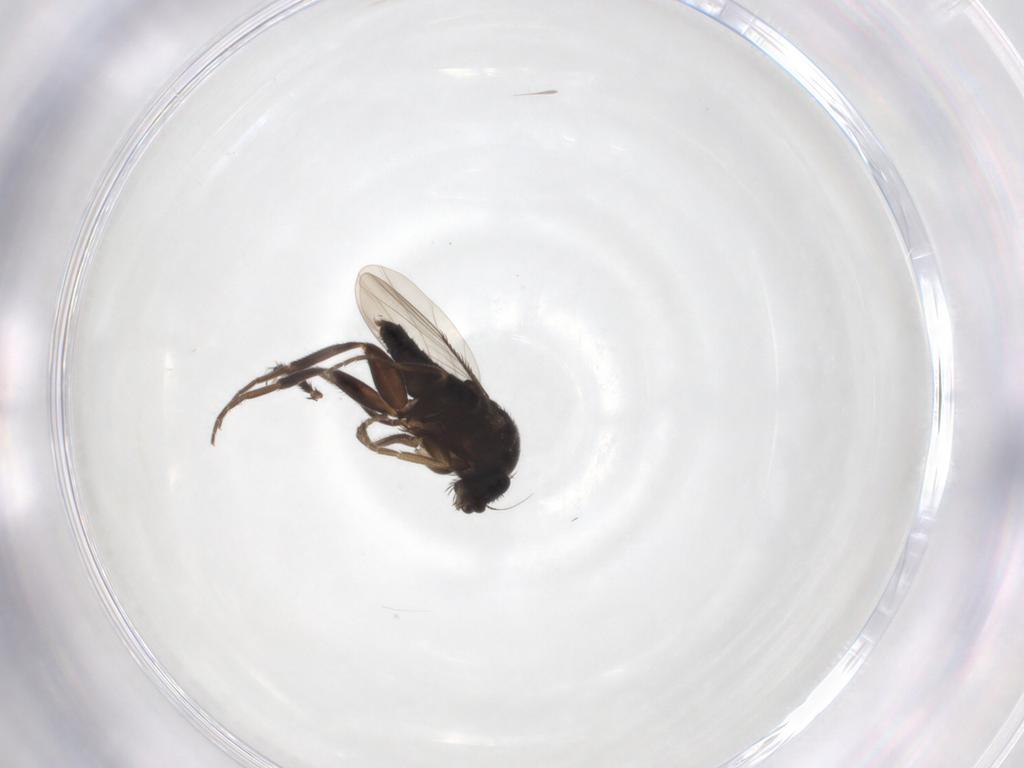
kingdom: Animalia
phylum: Arthropoda
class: Insecta
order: Diptera
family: Phoridae
